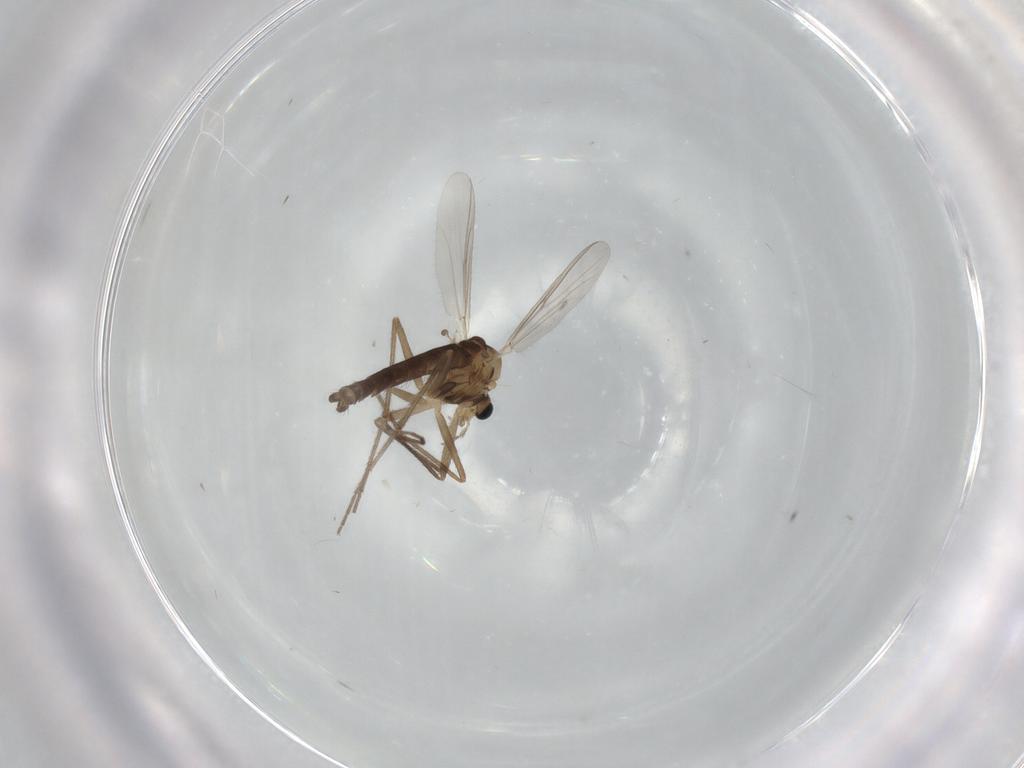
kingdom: Animalia
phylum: Arthropoda
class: Insecta
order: Diptera
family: Chironomidae
